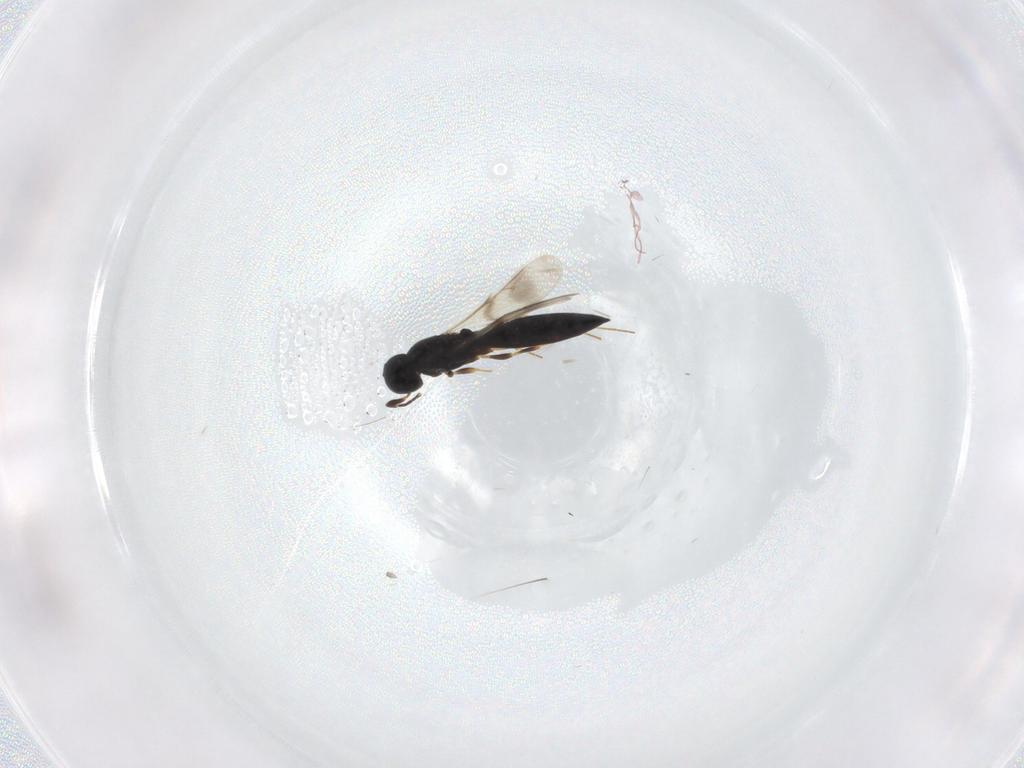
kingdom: Animalia
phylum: Arthropoda
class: Insecta
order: Hymenoptera
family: Scelionidae
